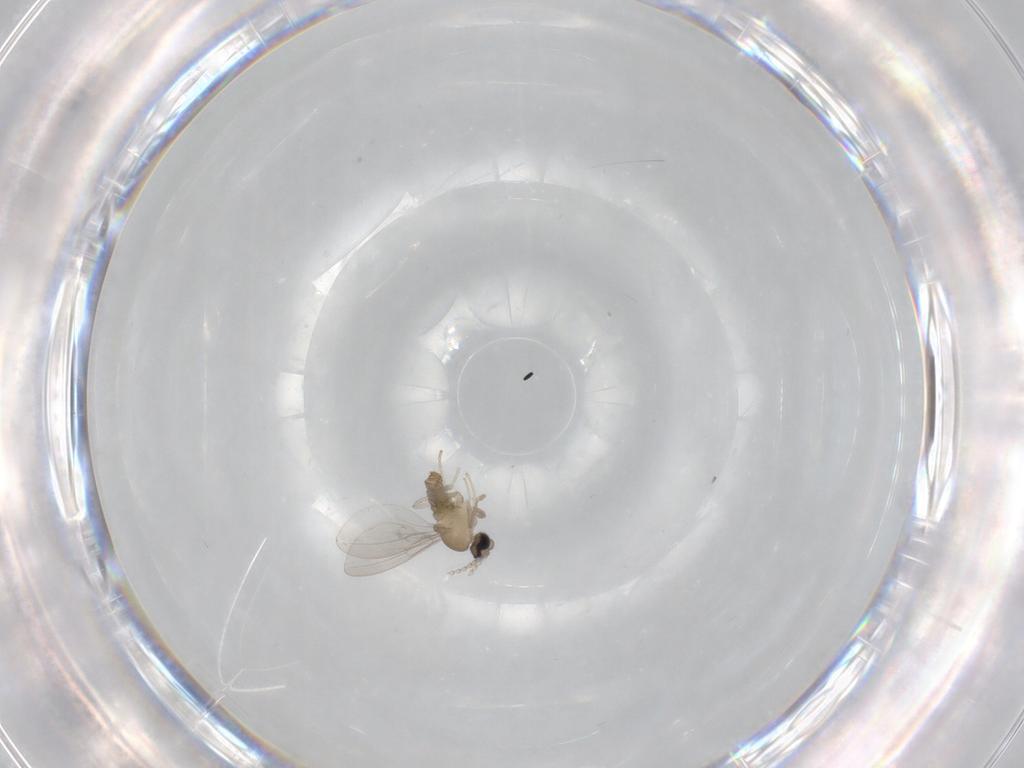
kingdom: Animalia
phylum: Arthropoda
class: Insecta
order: Diptera
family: Cecidomyiidae
